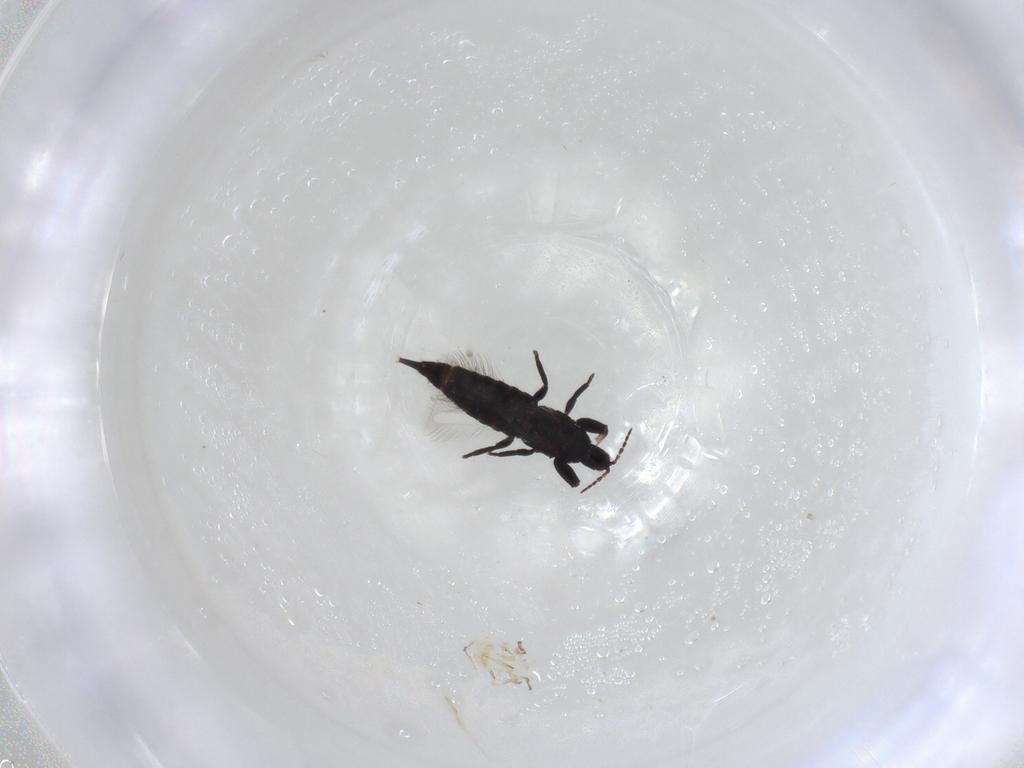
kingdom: Animalia
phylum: Arthropoda
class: Insecta
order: Thysanoptera
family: Phlaeothripidae
